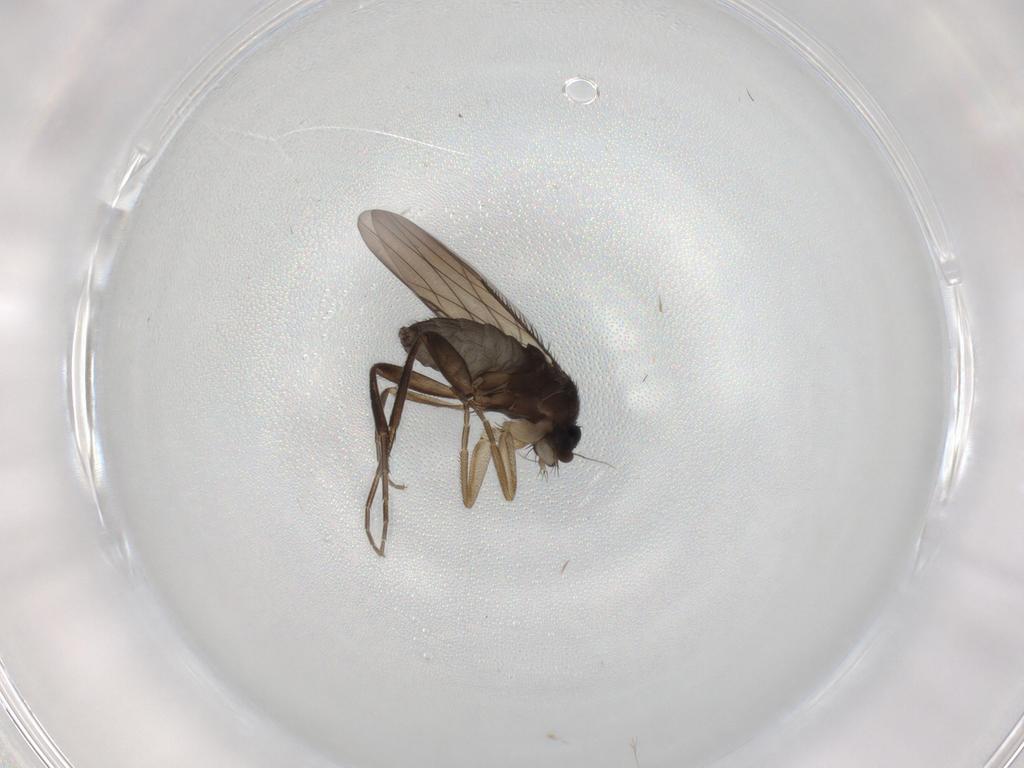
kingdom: Animalia
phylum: Arthropoda
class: Insecta
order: Diptera
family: Phoridae
